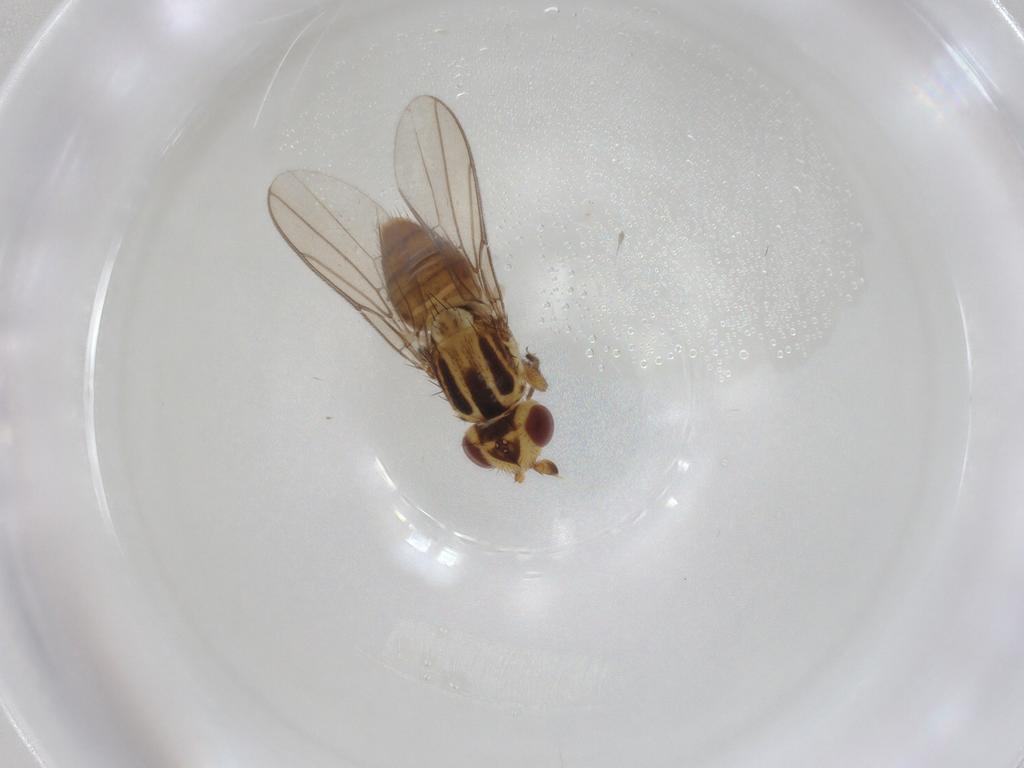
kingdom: Animalia
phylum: Arthropoda
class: Insecta
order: Diptera
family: Chloropidae
